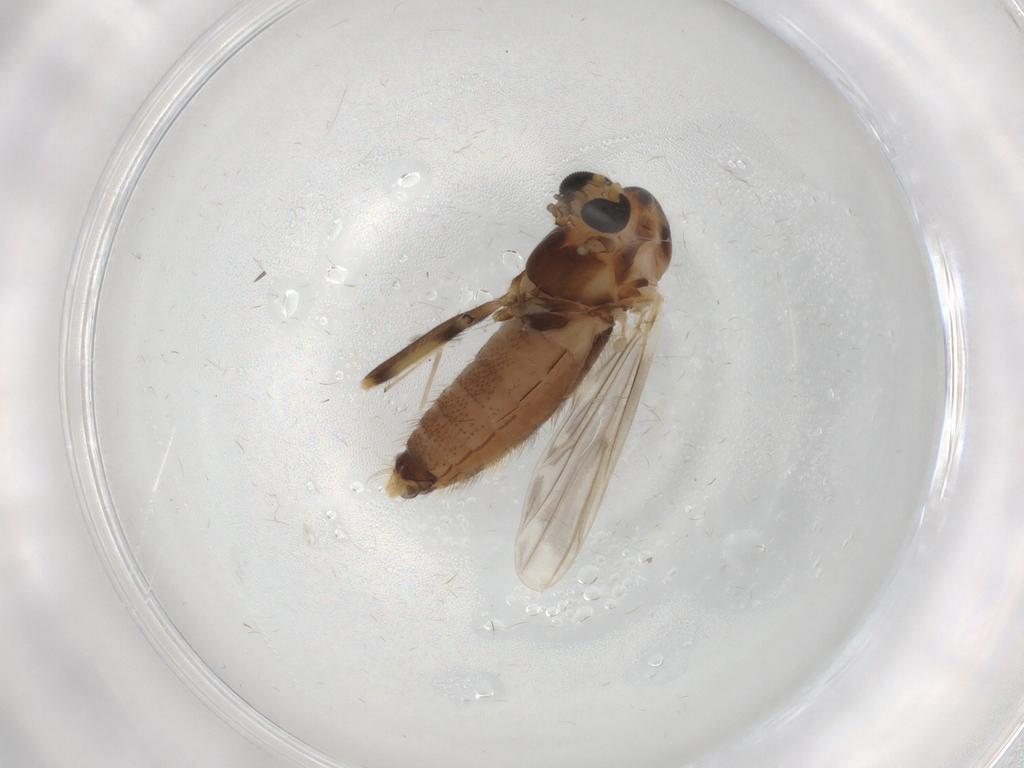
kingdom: Animalia
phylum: Arthropoda
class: Insecta
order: Diptera
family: Chironomidae
